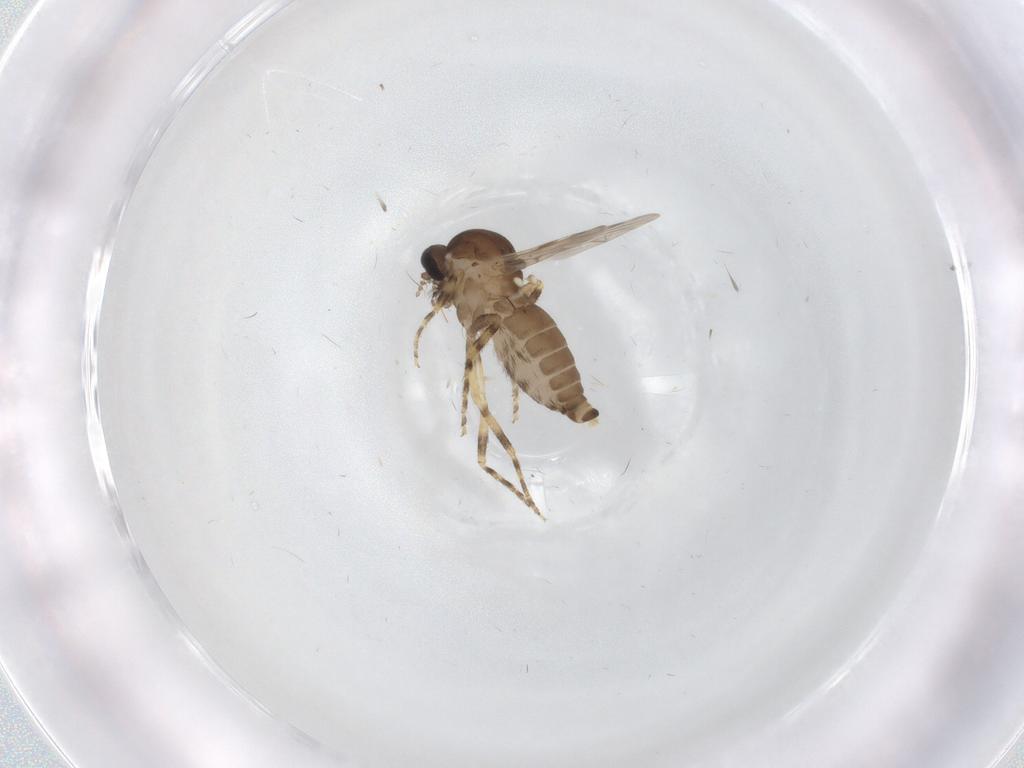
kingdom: Animalia
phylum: Arthropoda
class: Insecta
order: Diptera
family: Ceratopogonidae
